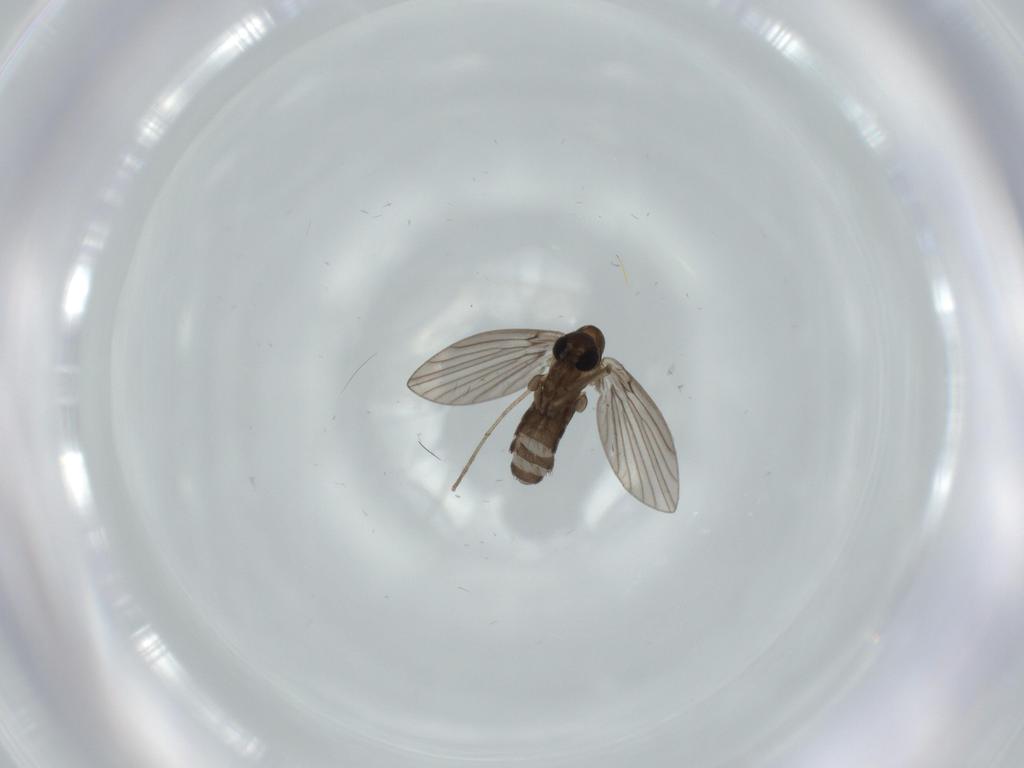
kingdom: Animalia
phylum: Arthropoda
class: Insecta
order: Diptera
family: Psychodidae
